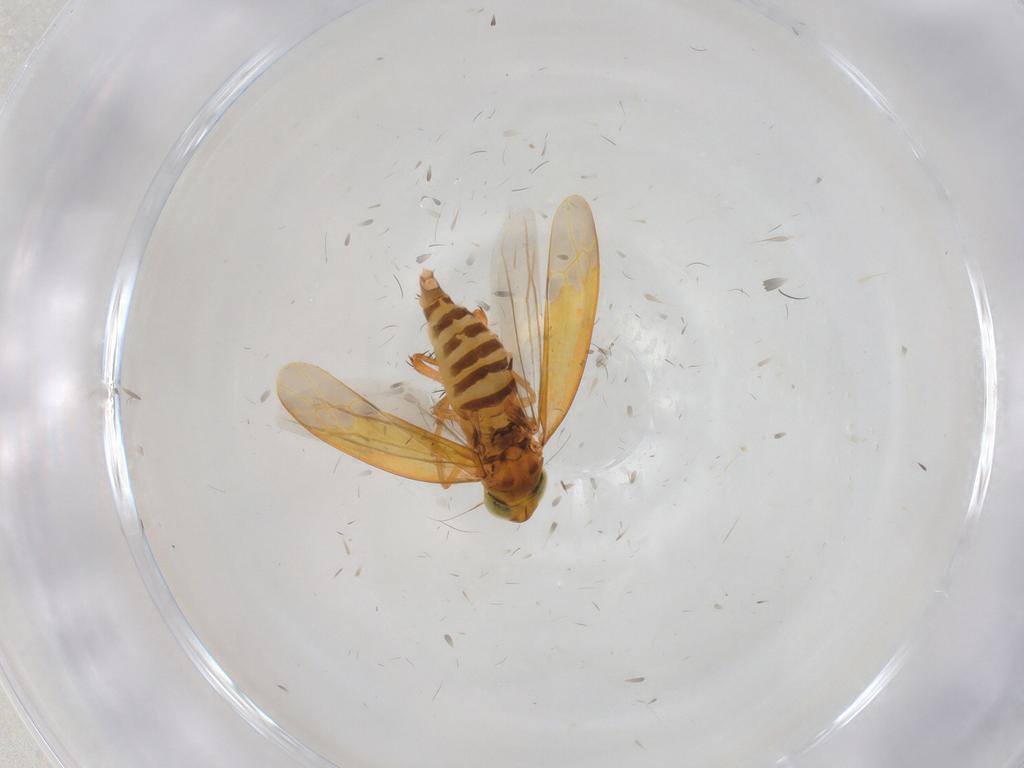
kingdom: Animalia
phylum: Arthropoda
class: Insecta
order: Hemiptera
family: Cicadellidae
